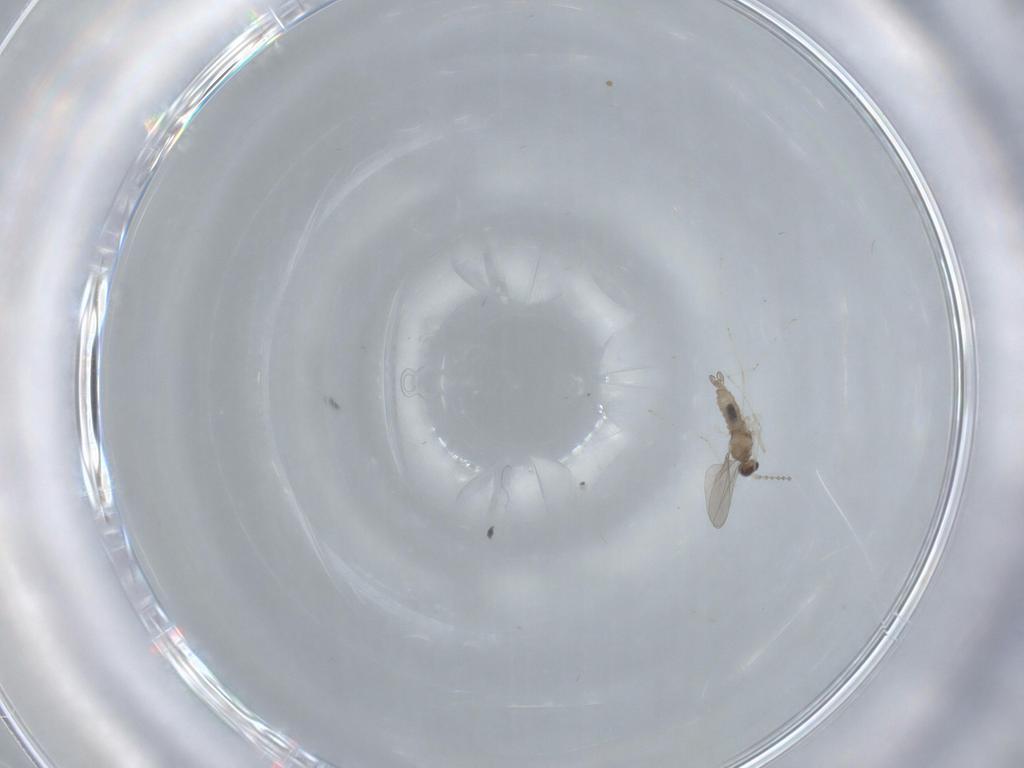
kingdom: Animalia
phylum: Arthropoda
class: Insecta
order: Diptera
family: Cecidomyiidae
